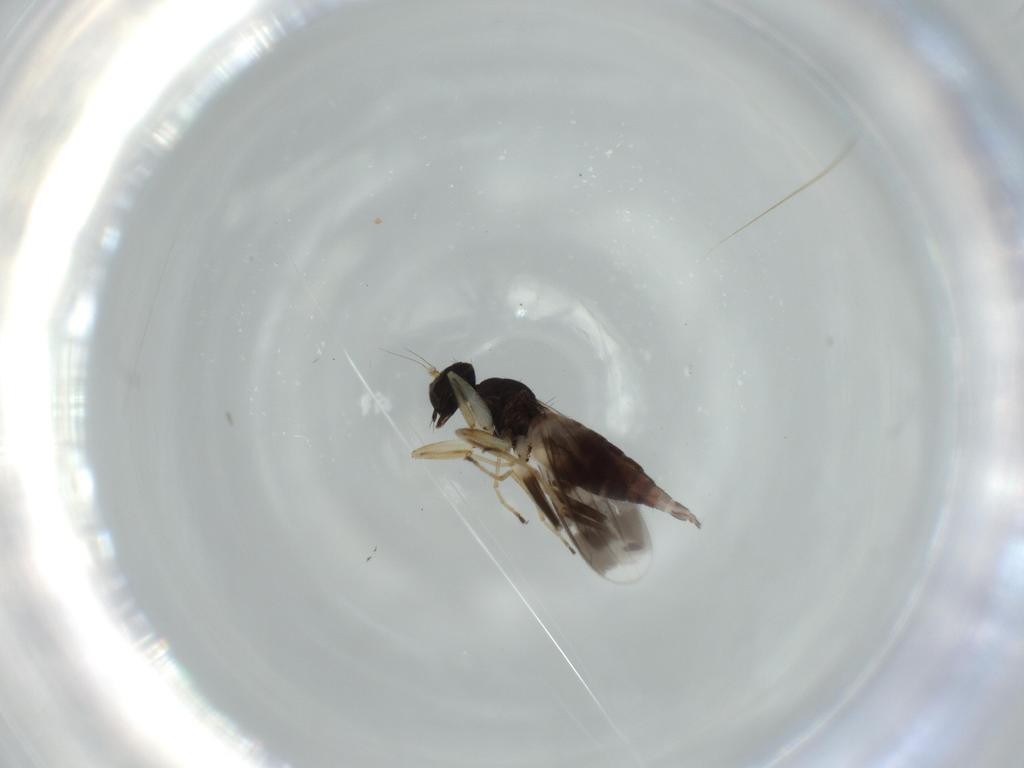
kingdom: Animalia
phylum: Arthropoda
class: Insecta
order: Diptera
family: Hybotidae
